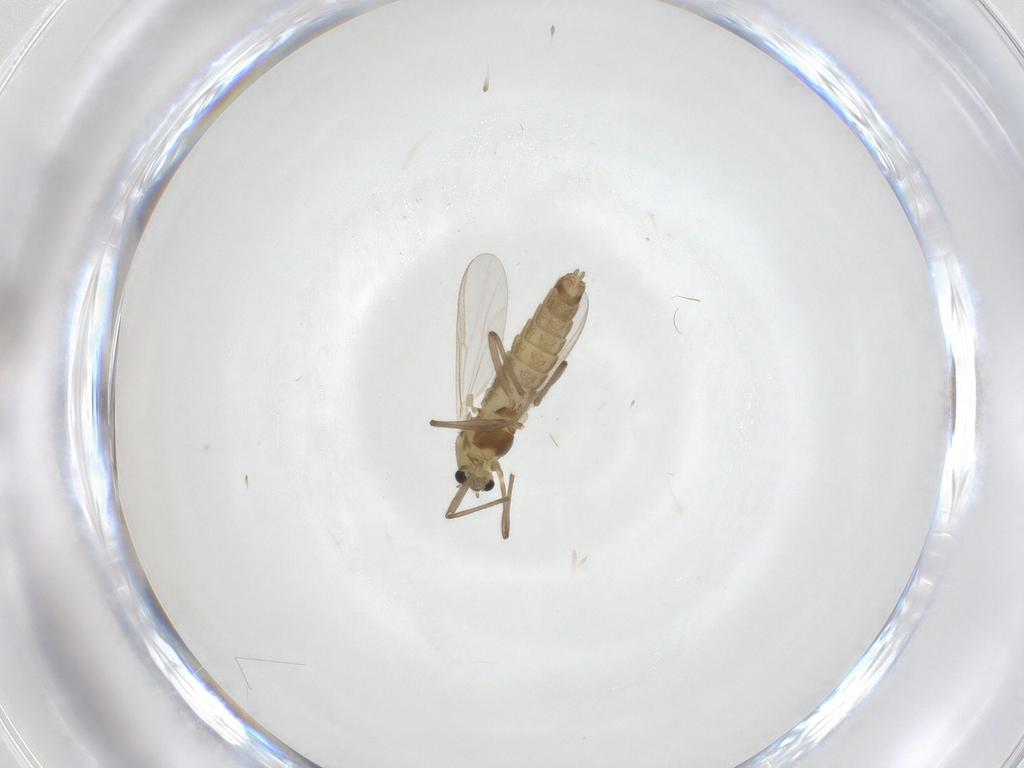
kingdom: Animalia
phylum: Arthropoda
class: Insecta
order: Diptera
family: Chironomidae
